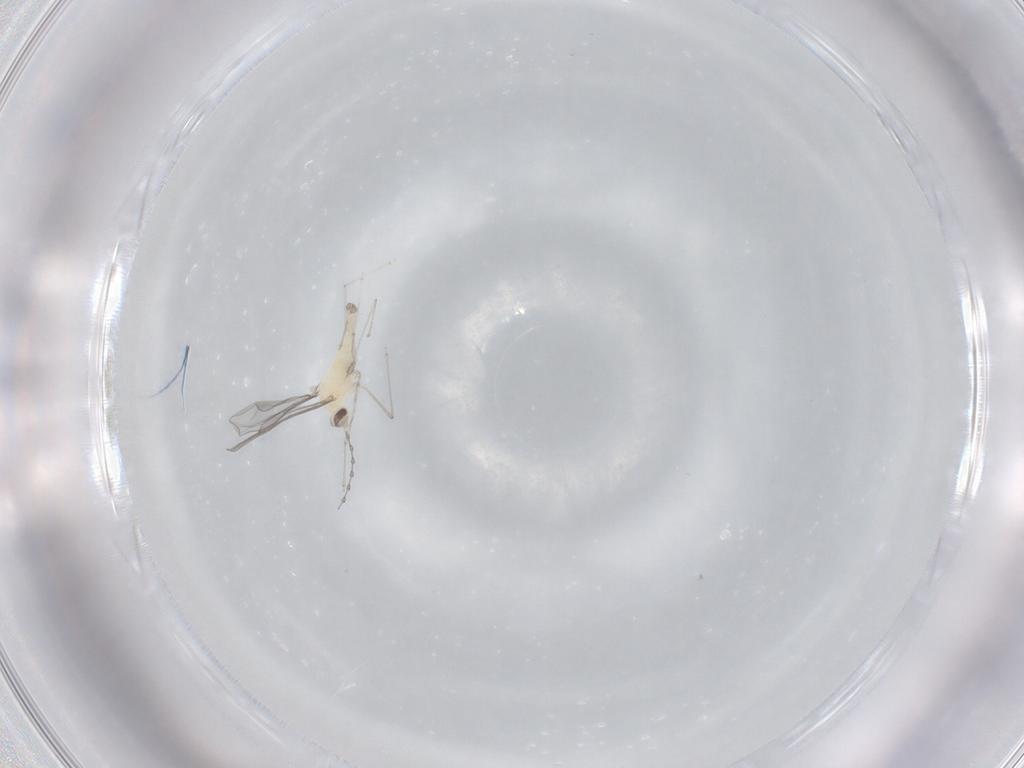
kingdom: Animalia
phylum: Arthropoda
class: Insecta
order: Diptera
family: Cecidomyiidae
